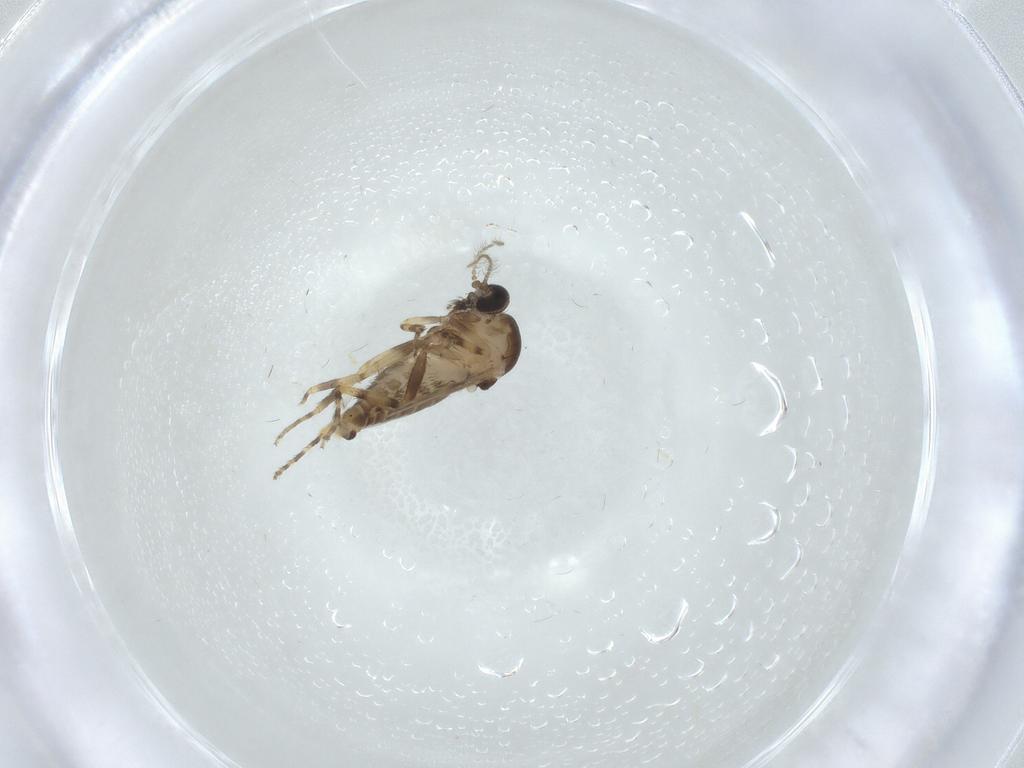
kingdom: Animalia
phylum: Arthropoda
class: Insecta
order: Diptera
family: Ceratopogonidae
